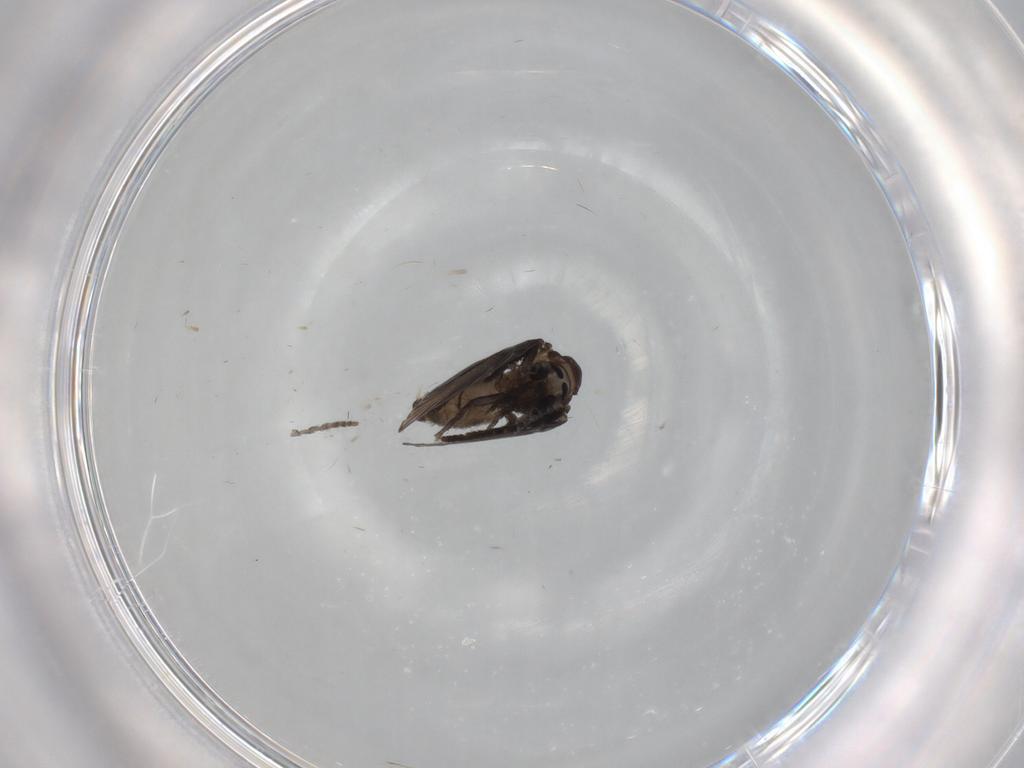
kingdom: Animalia
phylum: Arthropoda
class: Insecta
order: Diptera
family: Psychodidae
